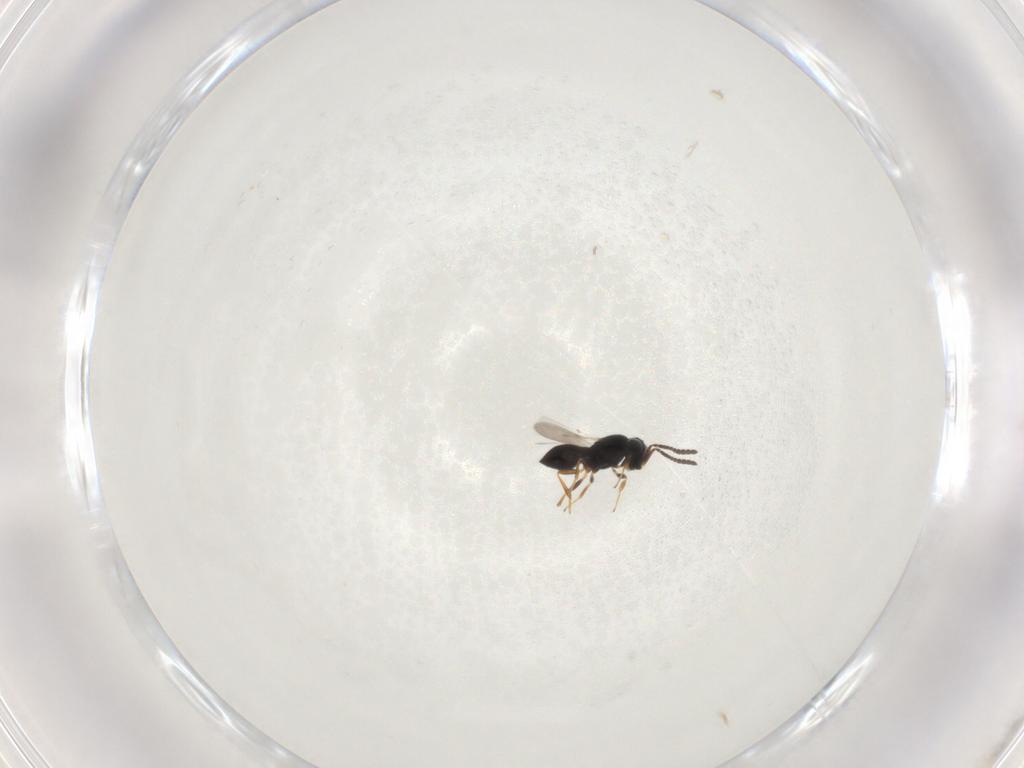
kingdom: Animalia
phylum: Arthropoda
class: Insecta
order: Hymenoptera
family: Scelionidae
